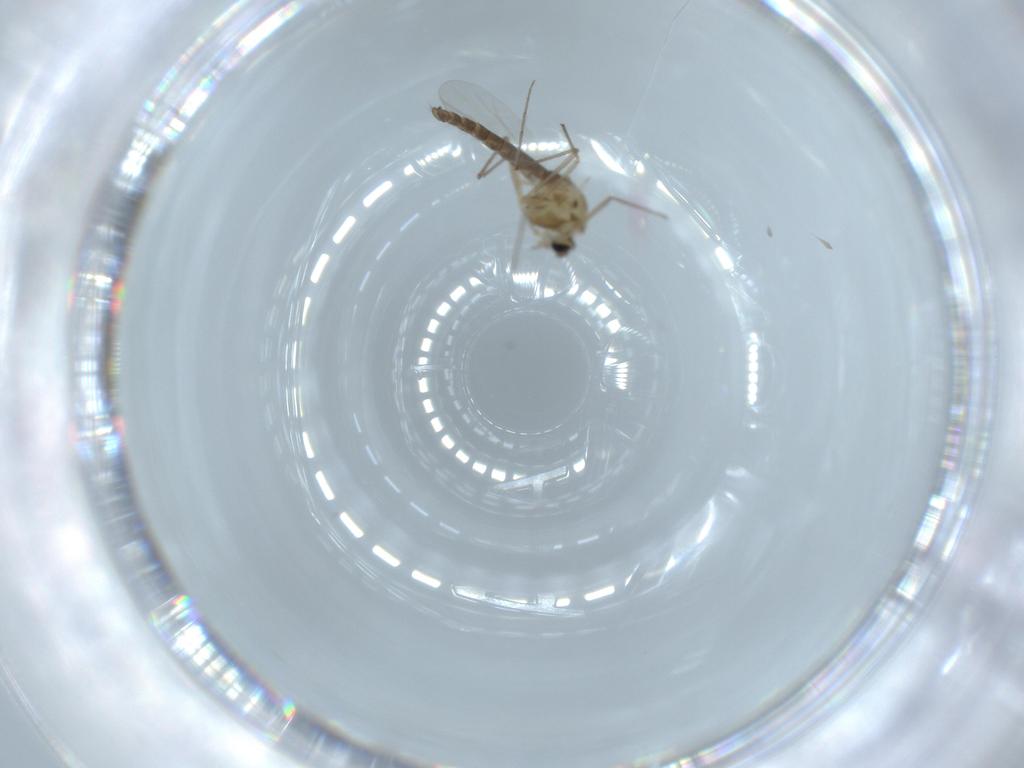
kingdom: Animalia
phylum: Arthropoda
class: Insecta
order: Diptera
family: Chironomidae
